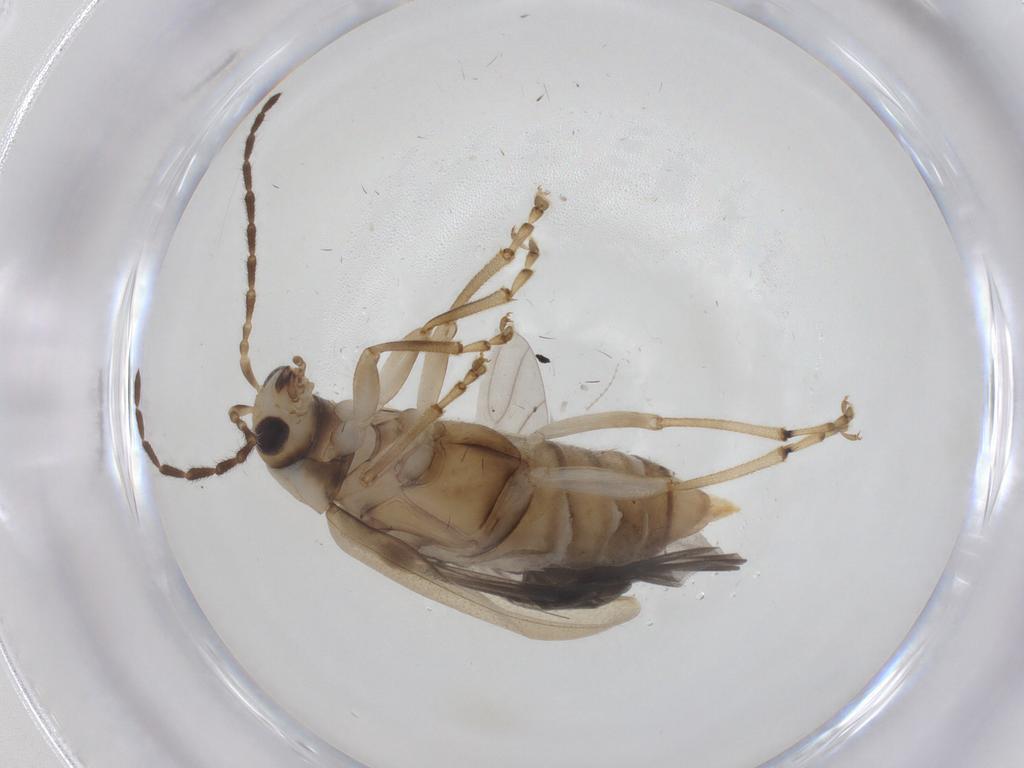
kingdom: Animalia
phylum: Arthropoda
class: Insecta
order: Coleoptera
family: Chrysomelidae
